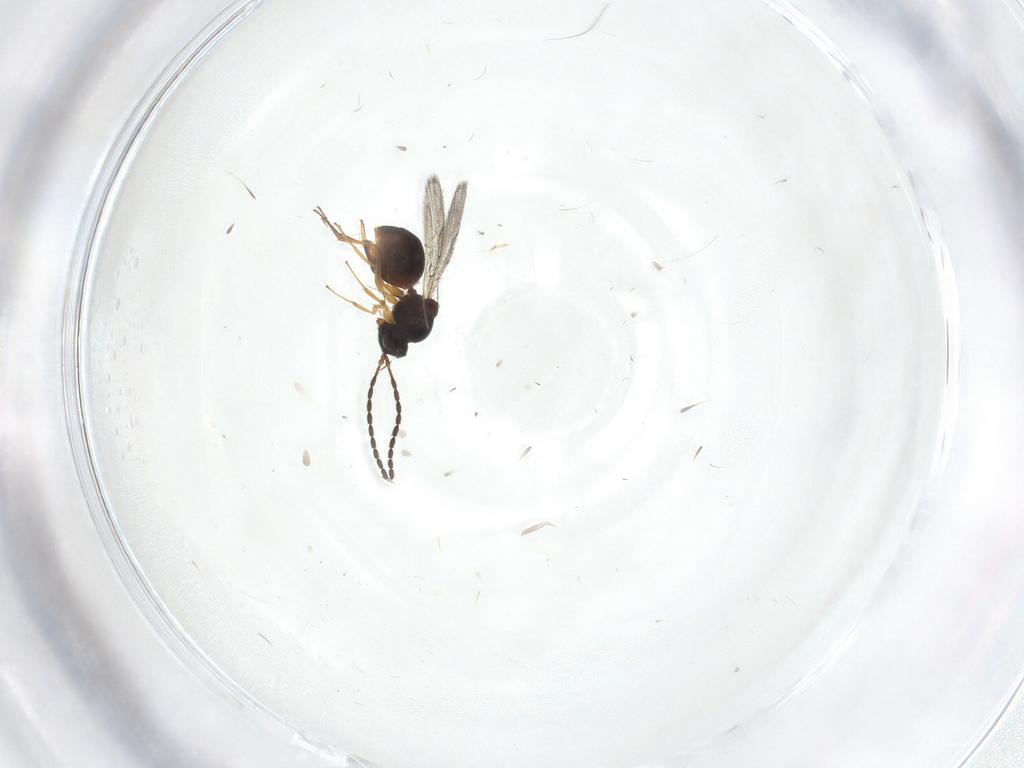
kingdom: Animalia
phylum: Arthropoda
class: Insecta
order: Hymenoptera
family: Figitidae
